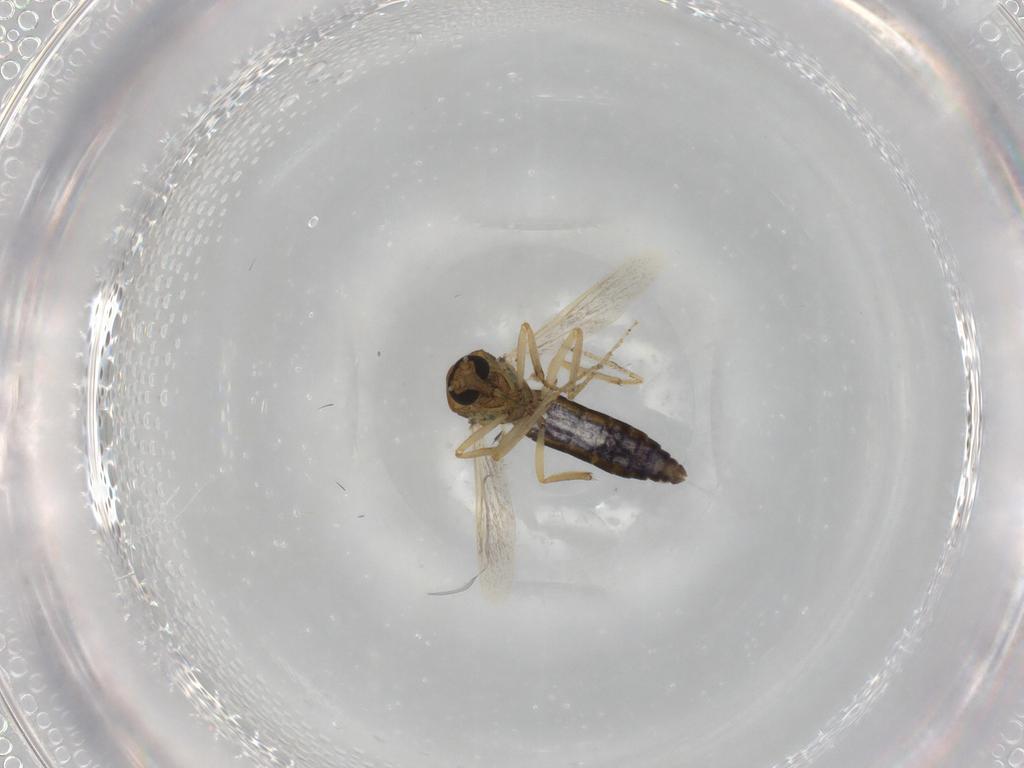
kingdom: Animalia
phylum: Arthropoda
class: Insecta
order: Diptera
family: Ceratopogonidae
